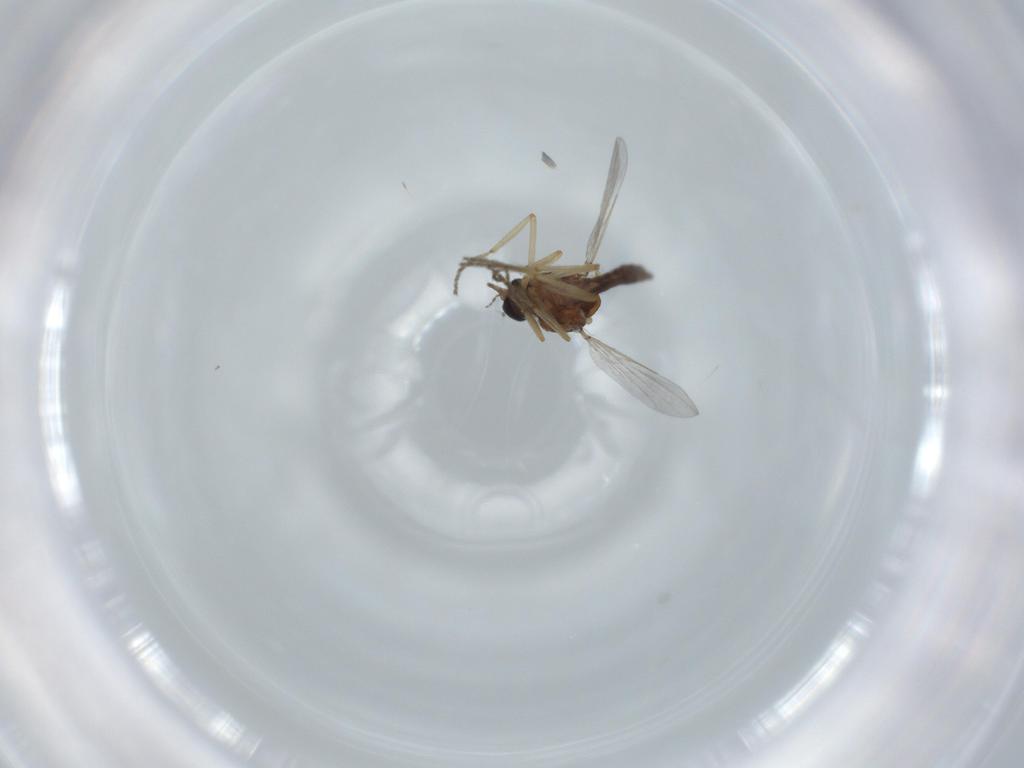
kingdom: Animalia
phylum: Arthropoda
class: Insecta
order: Diptera
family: Ceratopogonidae
